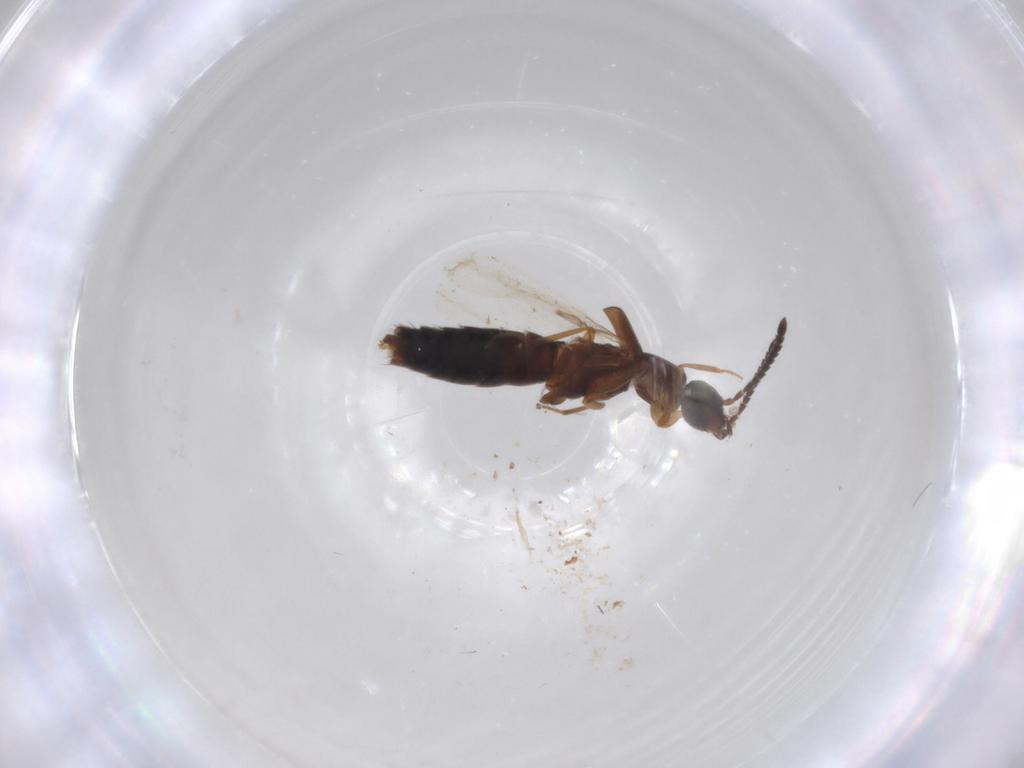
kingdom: Animalia
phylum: Arthropoda
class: Insecta
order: Coleoptera
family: Staphylinidae
